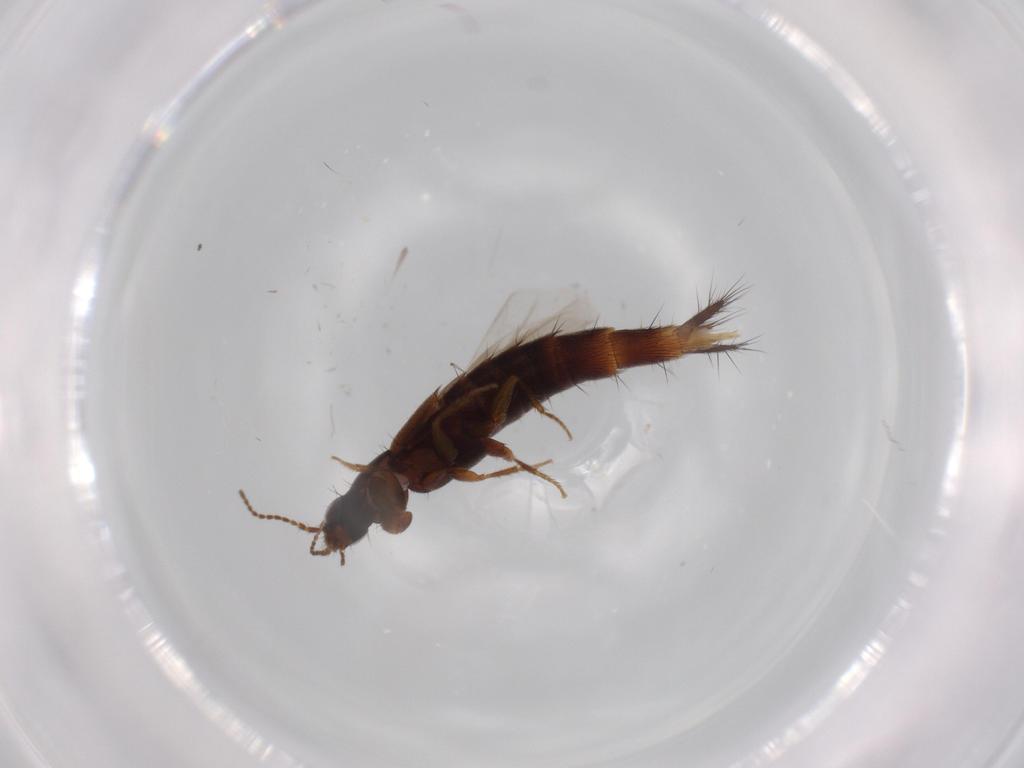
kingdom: Animalia
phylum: Arthropoda
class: Insecta
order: Coleoptera
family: Staphylinidae
